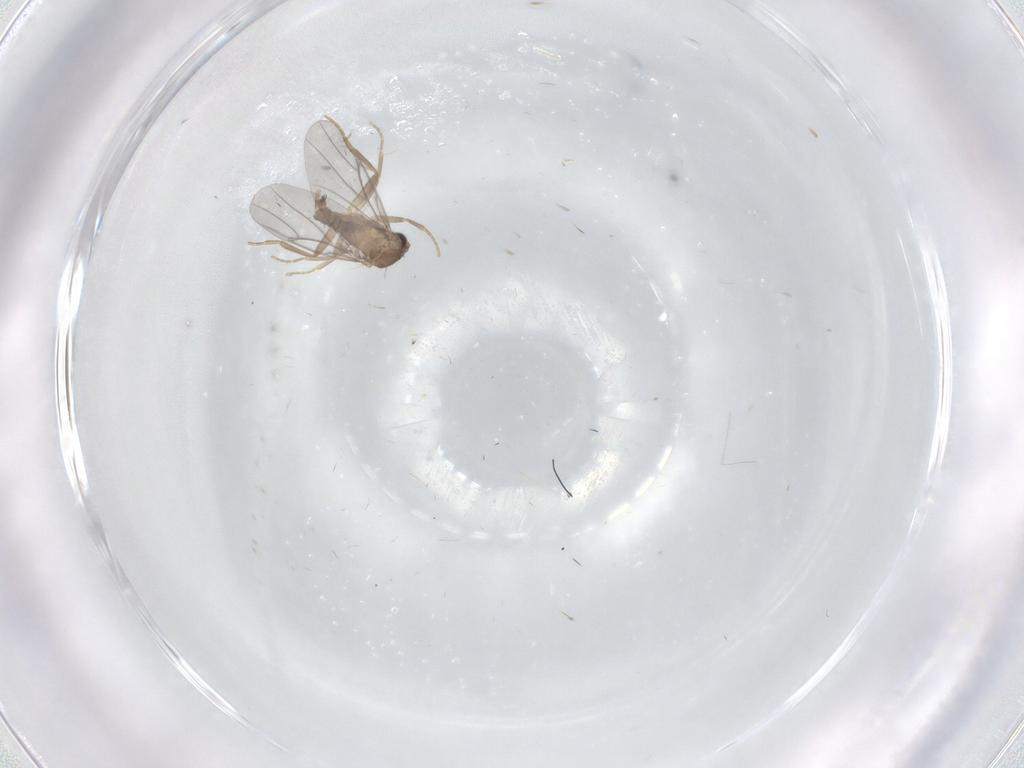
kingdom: Animalia
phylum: Arthropoda
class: Insecta
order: Diptera
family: Chironomidae
